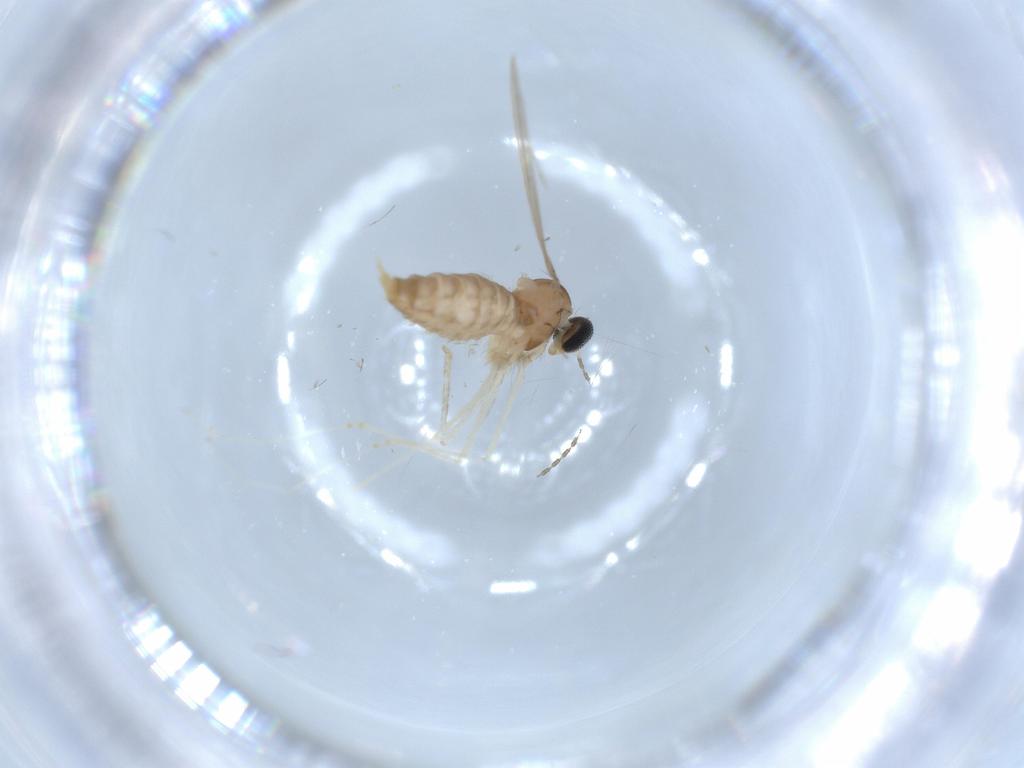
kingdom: Animalia
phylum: Arthropoda
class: Insecta
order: Diptera
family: Cecidomyiidae
